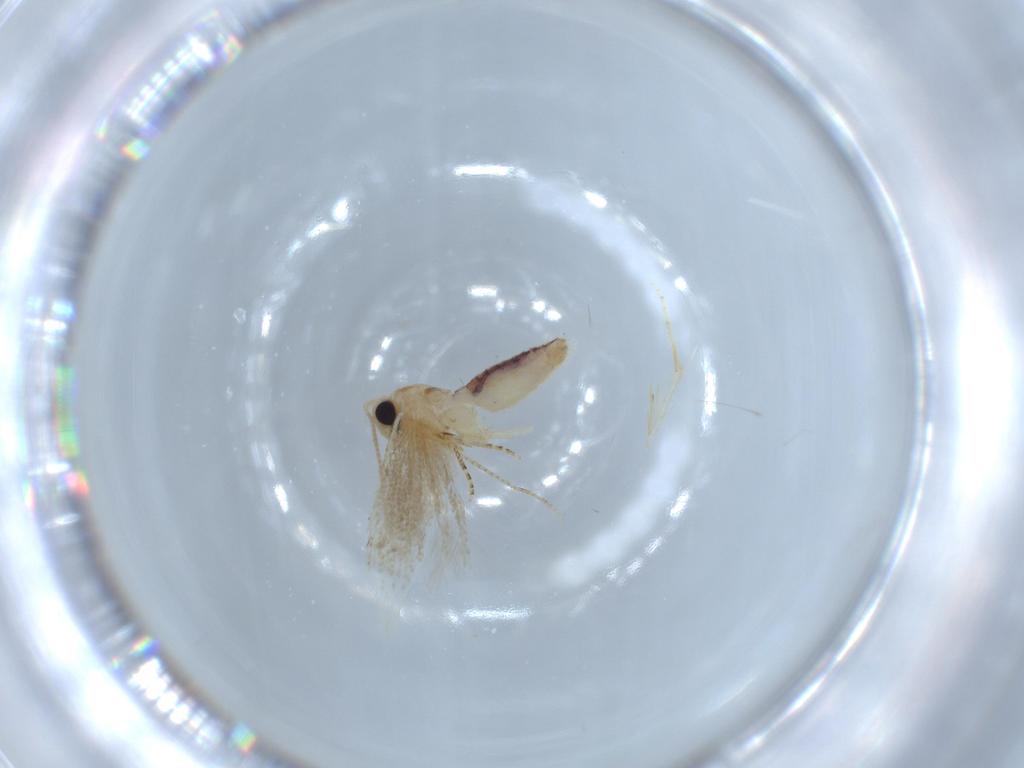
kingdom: Animalia
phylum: Arthropoda
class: Insecta
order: Lepidoptera
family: Bucculatricidae
